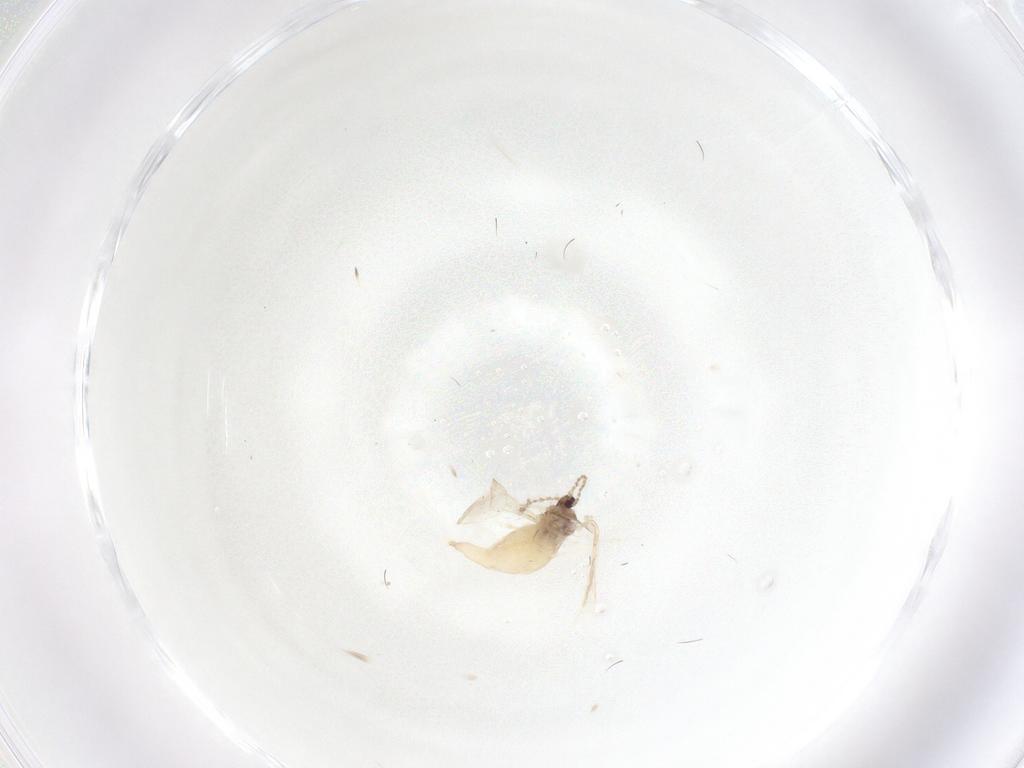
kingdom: Animalia
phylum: Arthropoda
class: Insecta
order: Diptera
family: Cecidomyiidae
